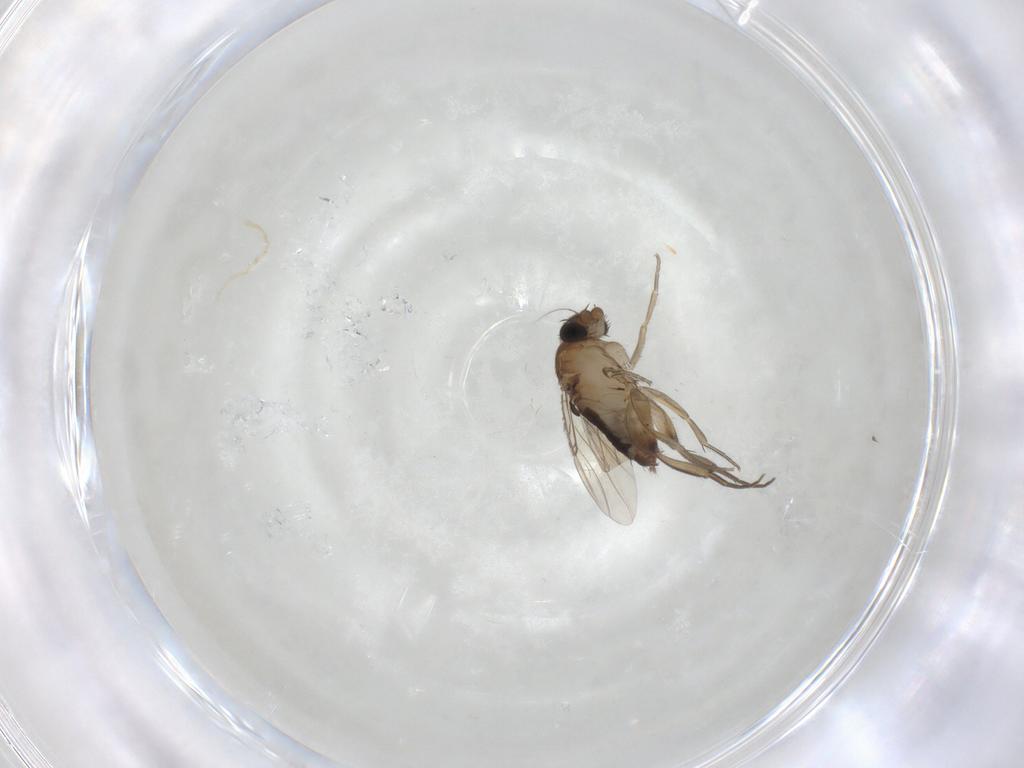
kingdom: Animalia
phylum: Arthropoda
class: Insecta
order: Diptera
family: Phoridae
